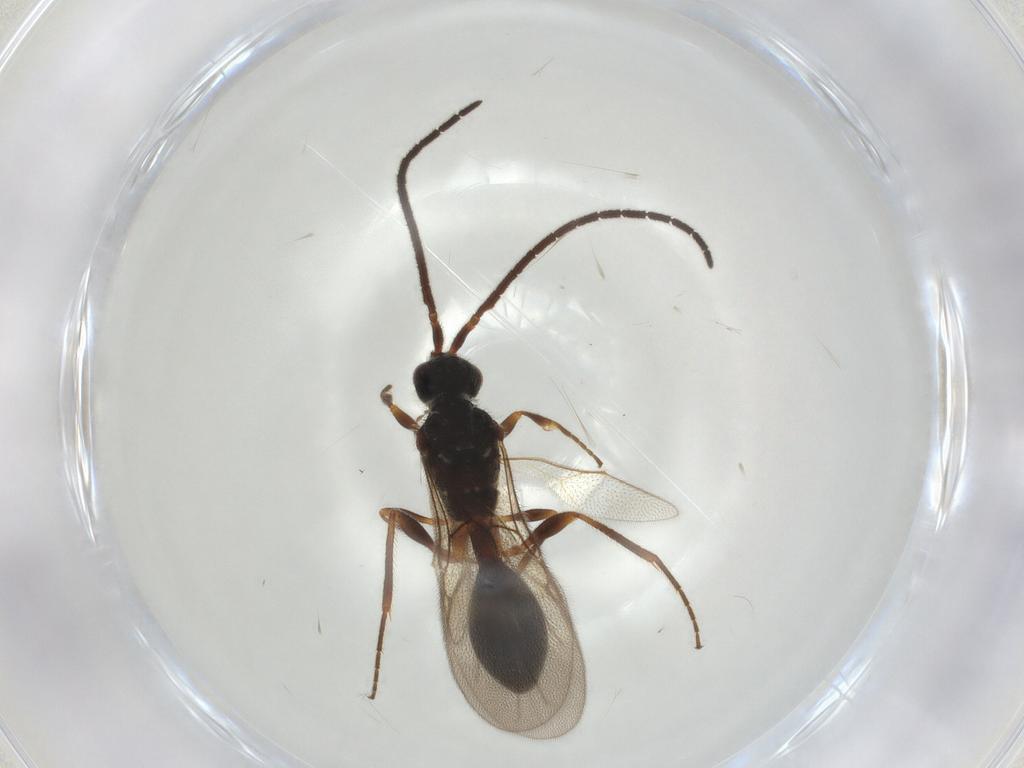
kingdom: Animalia
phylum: Arthropoda
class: Insecta
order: Hymenoptera
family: Diapriidae
